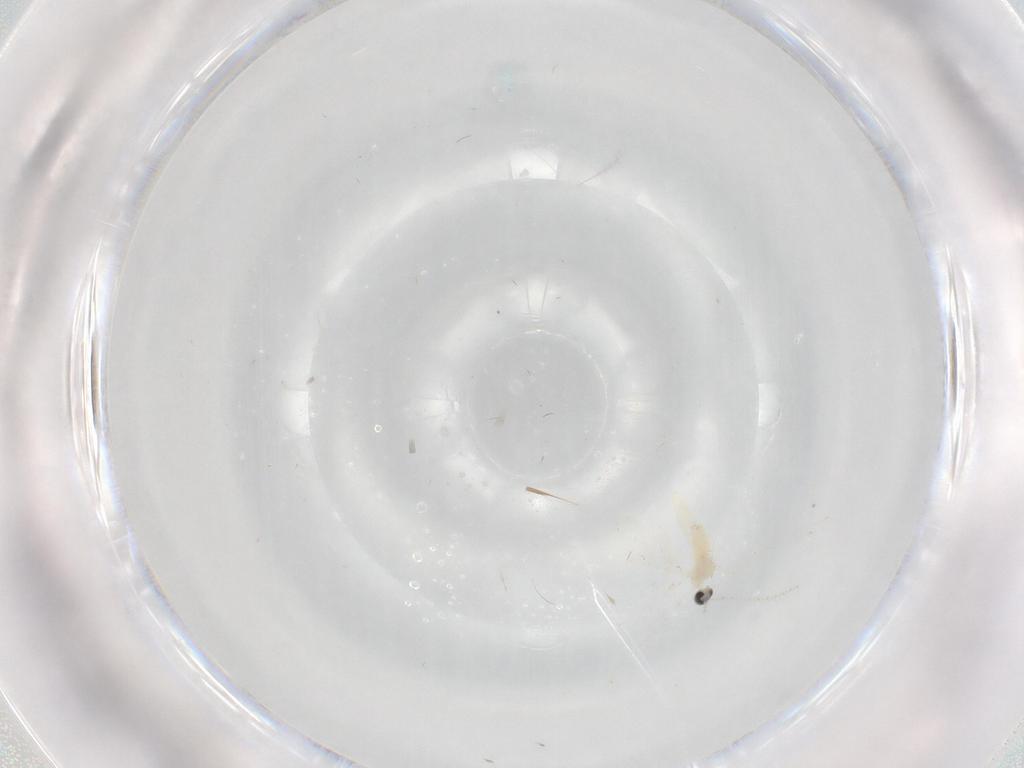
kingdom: Animalia
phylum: Arthropoda
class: Insecta
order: Diptera
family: Cecidomyiidae
